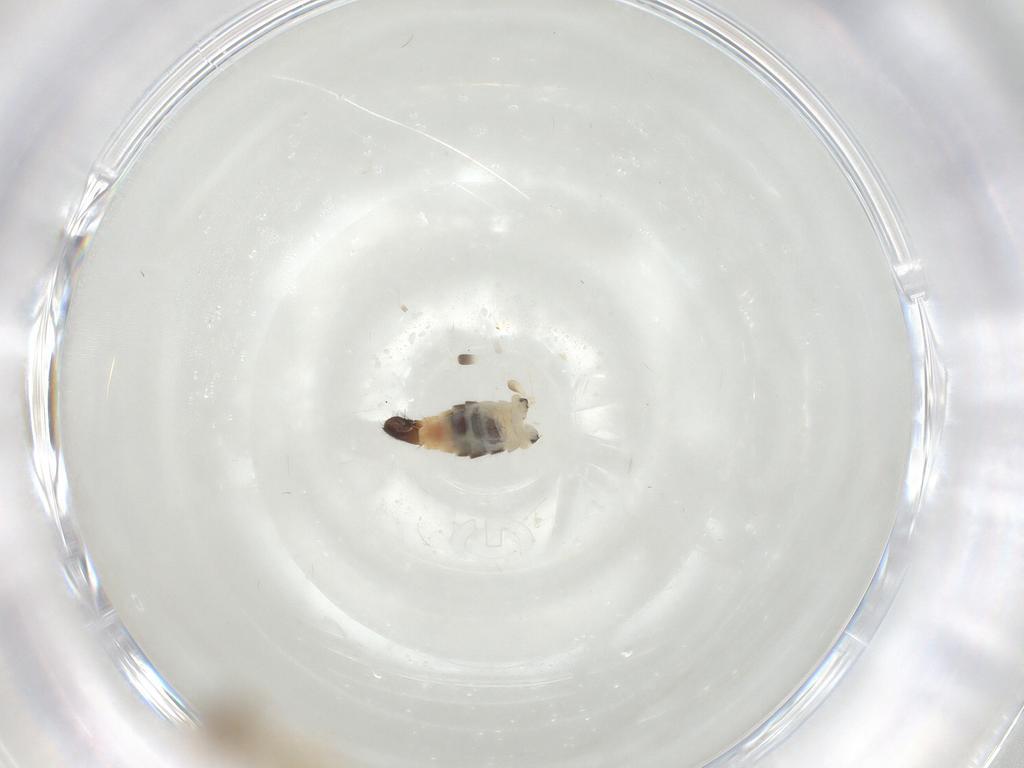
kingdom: Animalia
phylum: Arthropoda
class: Insecta
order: Diptera
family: Hybotidae
